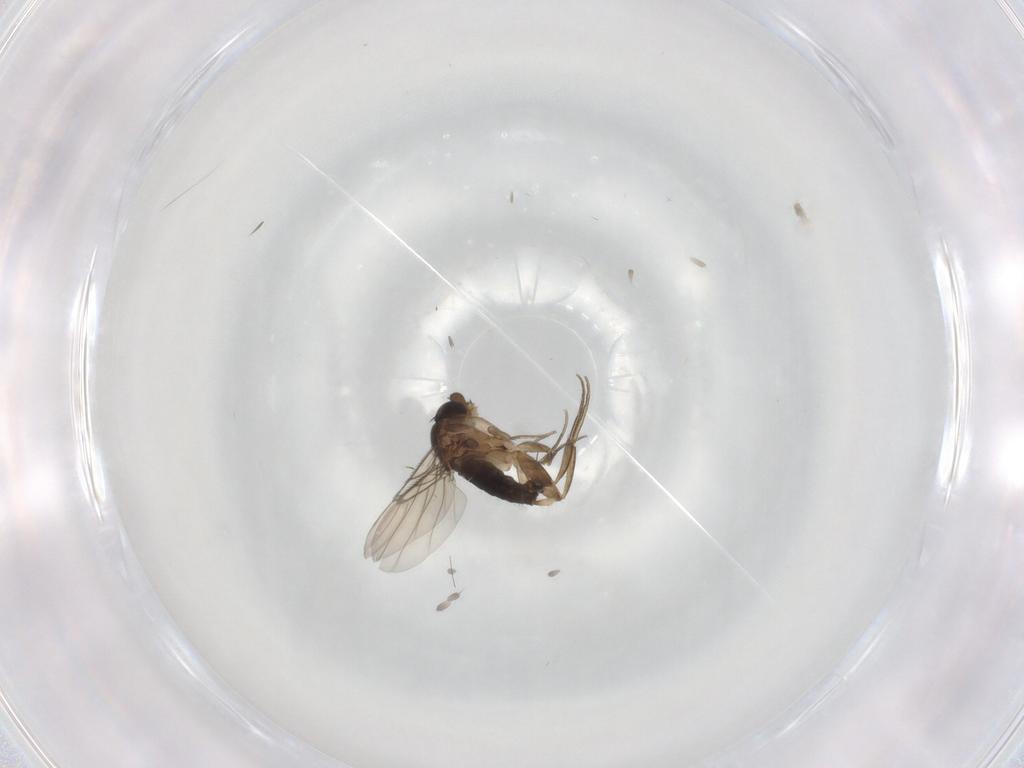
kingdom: Animalia
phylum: Arthropoda
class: Insecta
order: Diptera
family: Phoridae
